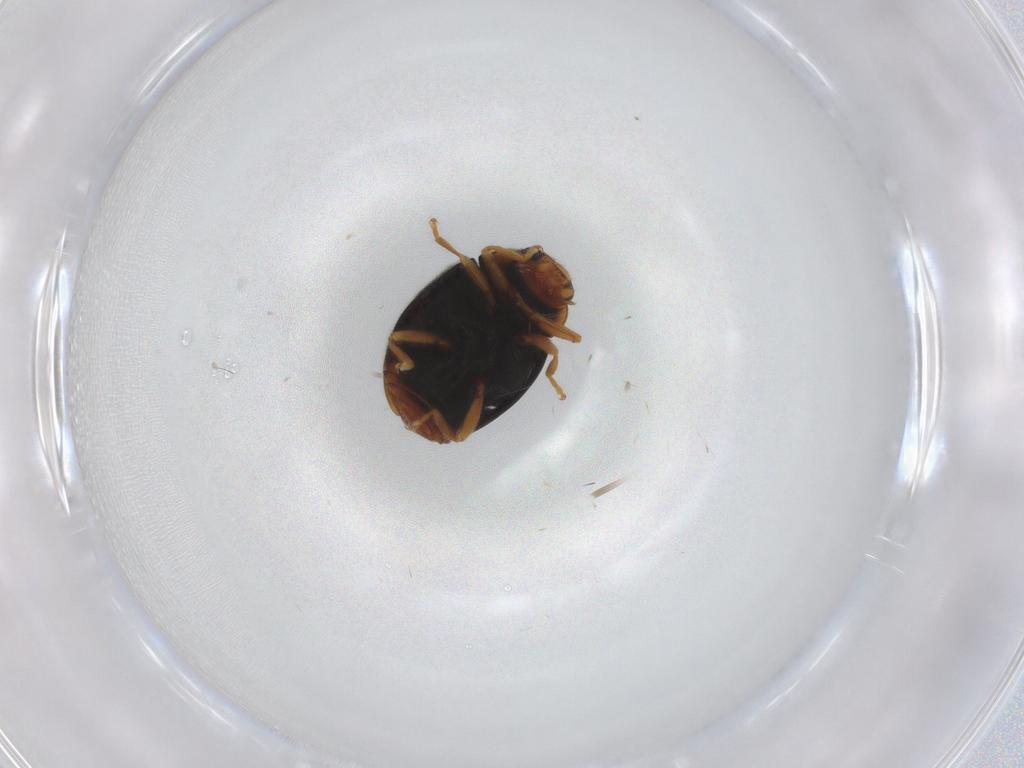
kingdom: Animalia
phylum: Arthropoda
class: Insecta
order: Coleoptera
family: Coccinellidae
